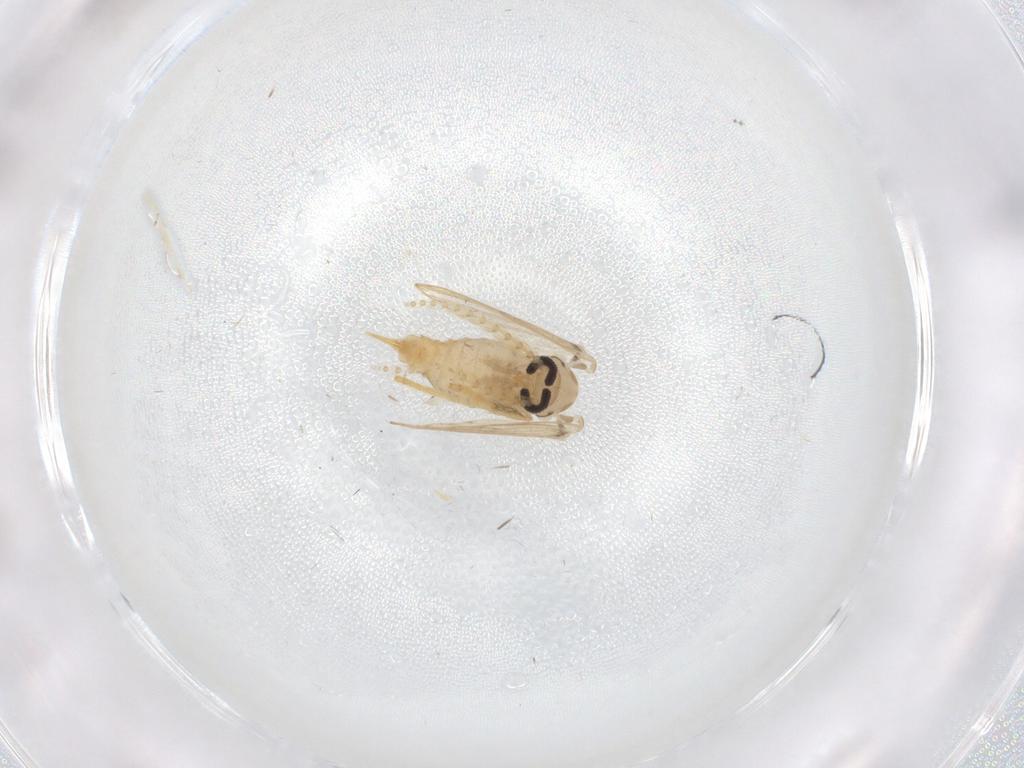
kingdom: Animalia
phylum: Arthropoda
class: Insecta
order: Diptera
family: Psychodidae
